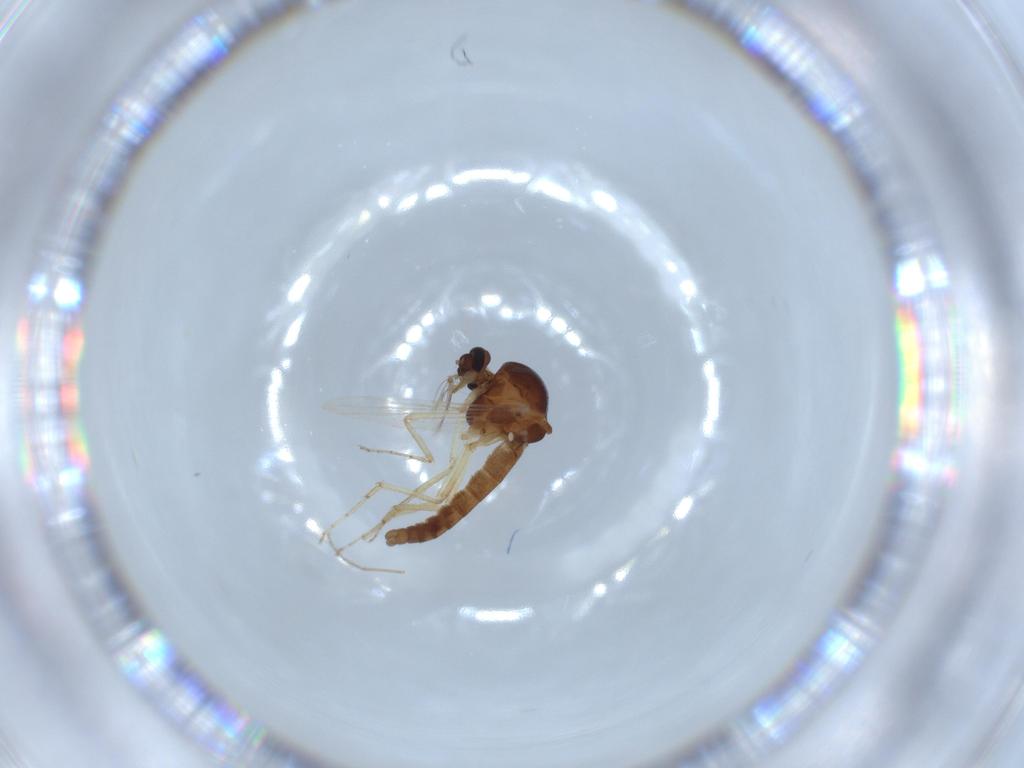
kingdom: Animalia
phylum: Arthropoda
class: Insecta
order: Diptera
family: Ceratopogonidae
